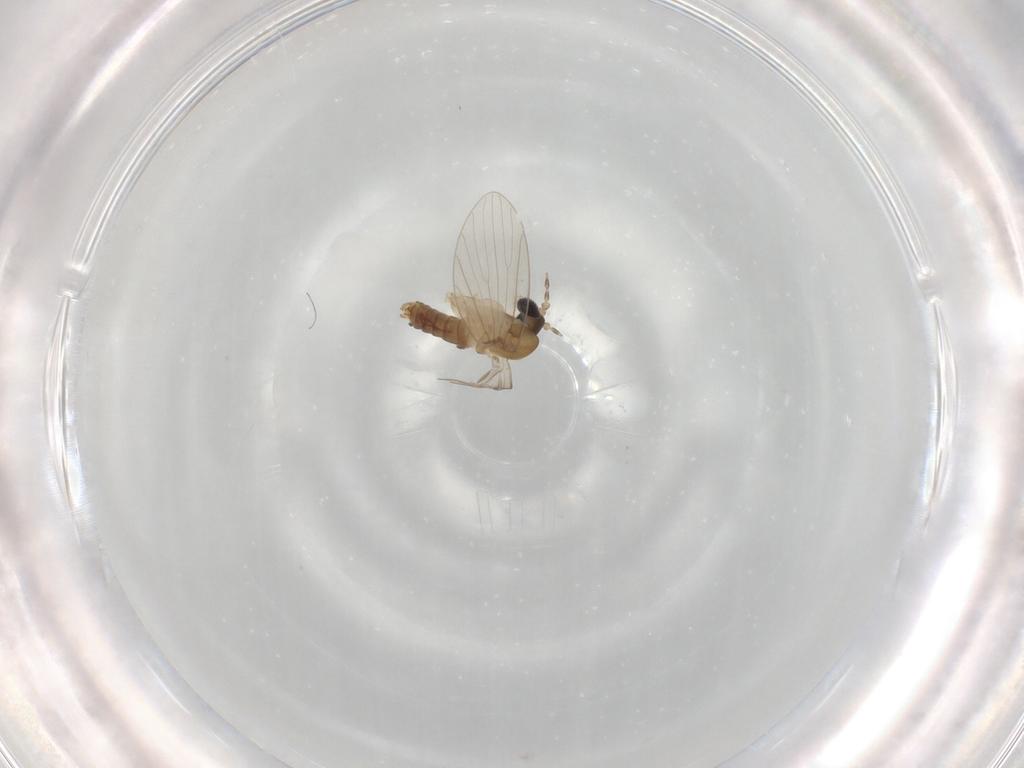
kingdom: Animalia
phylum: Arthropoda
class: Insecta
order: Diptera
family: Psychodidae
